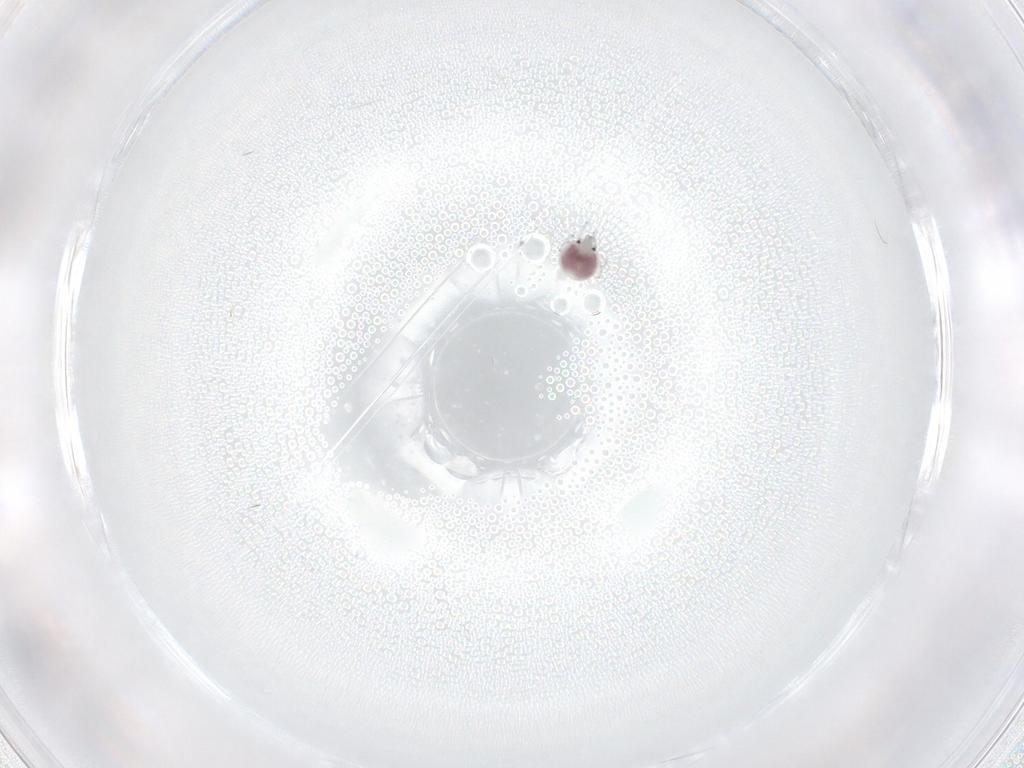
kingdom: Animalia
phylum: Arthropoda
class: Arachnida
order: Trombidiformes
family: Pionidae
